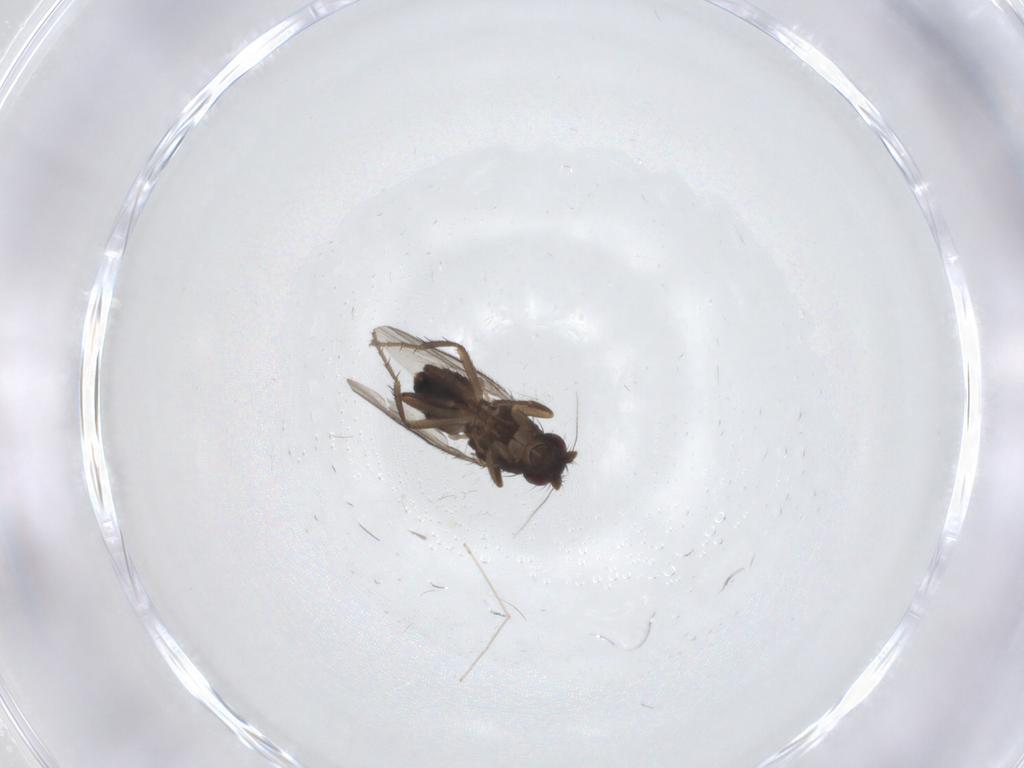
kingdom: Animalia
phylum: Arthropoda
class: Insecta
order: Diptera
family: Sphaeroceridae
